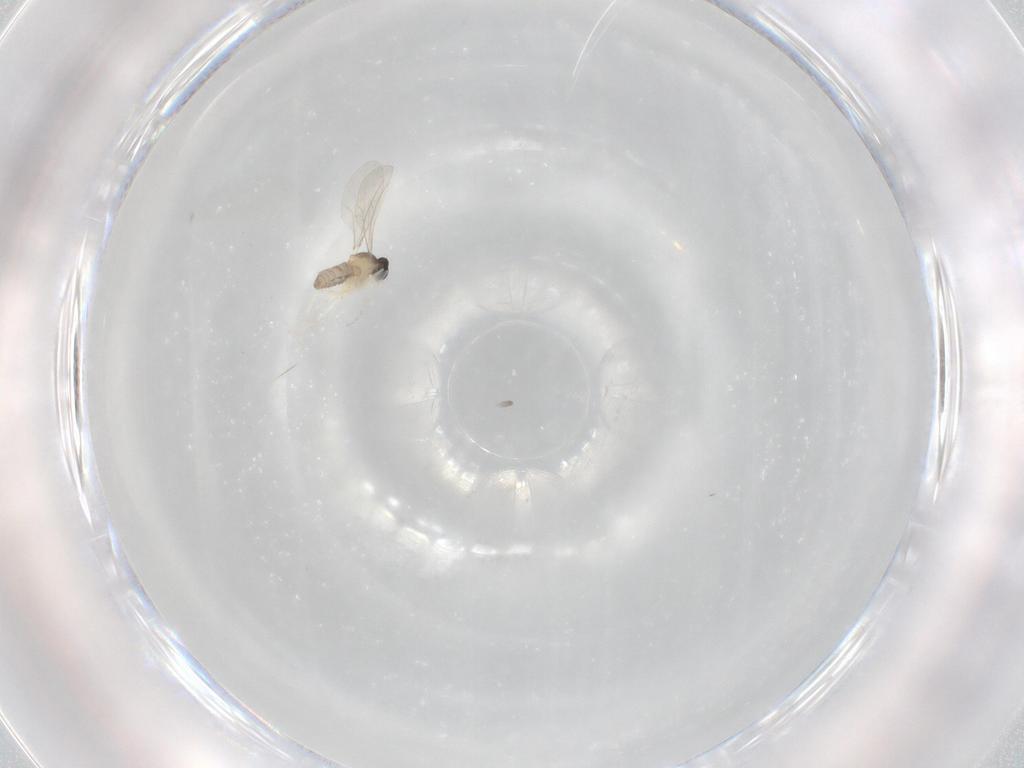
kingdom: Animalia
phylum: Arthropoda
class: Insecta
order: Diptera
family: Cecidomyiidae
